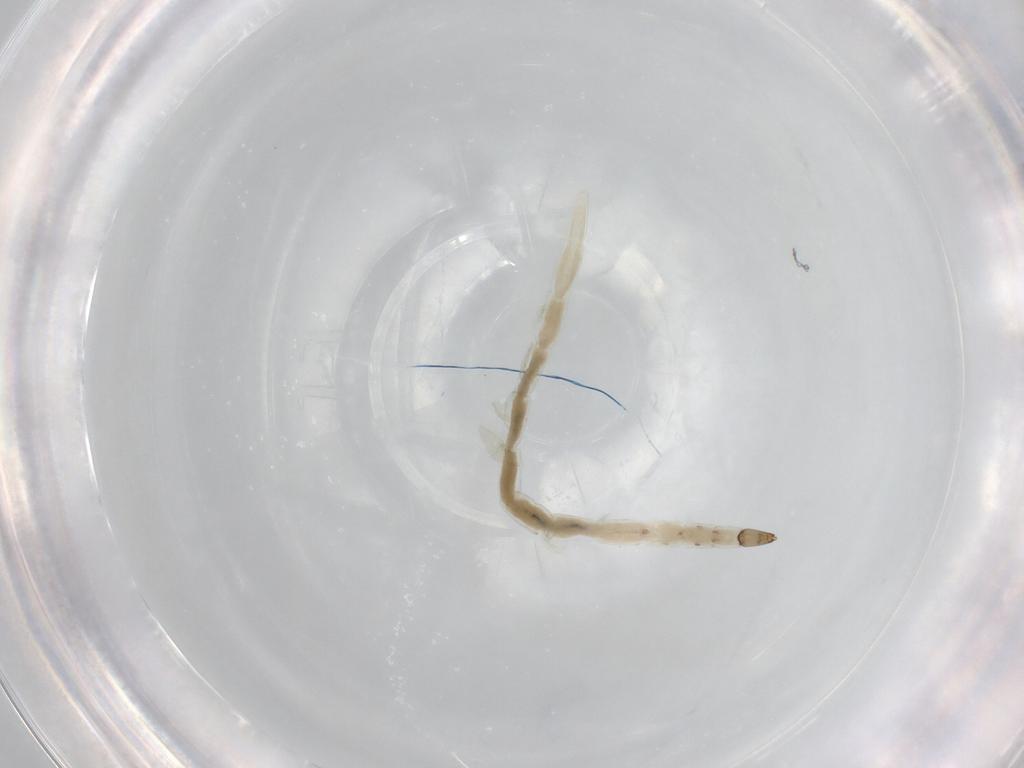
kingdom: Animalia
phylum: Arthropoda
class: Insecta
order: Diptera
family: Ceratopogonidae
